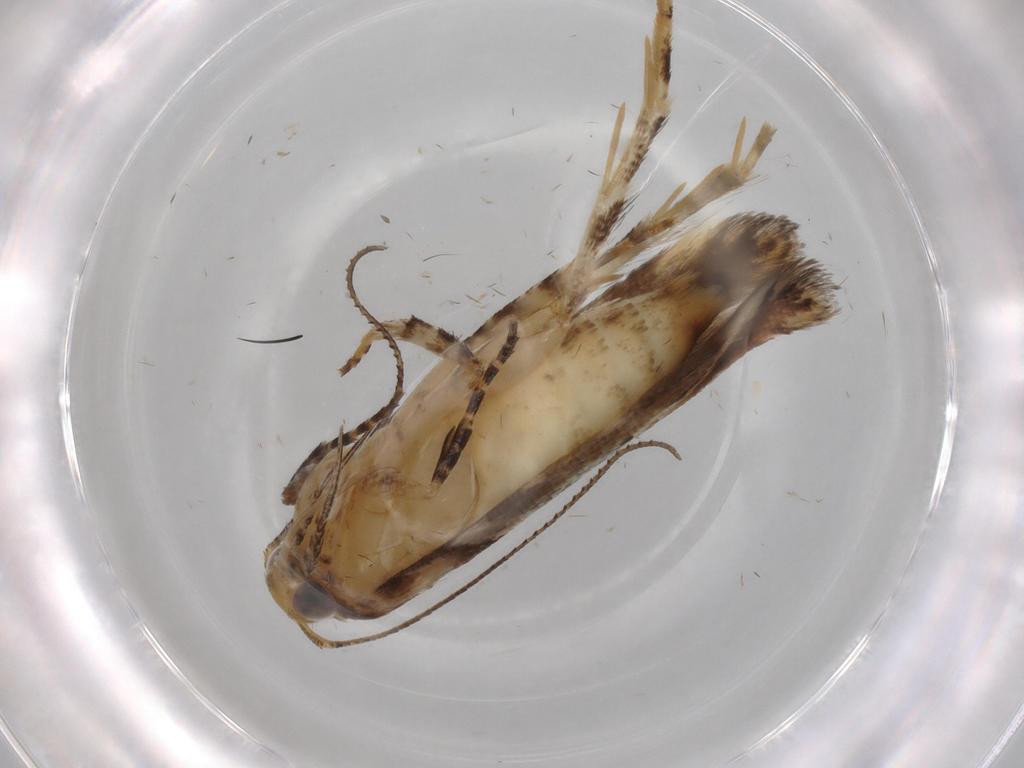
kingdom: Animalia
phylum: Arthropoda
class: Insecta
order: Lepidoptera
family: Gelechiidae
